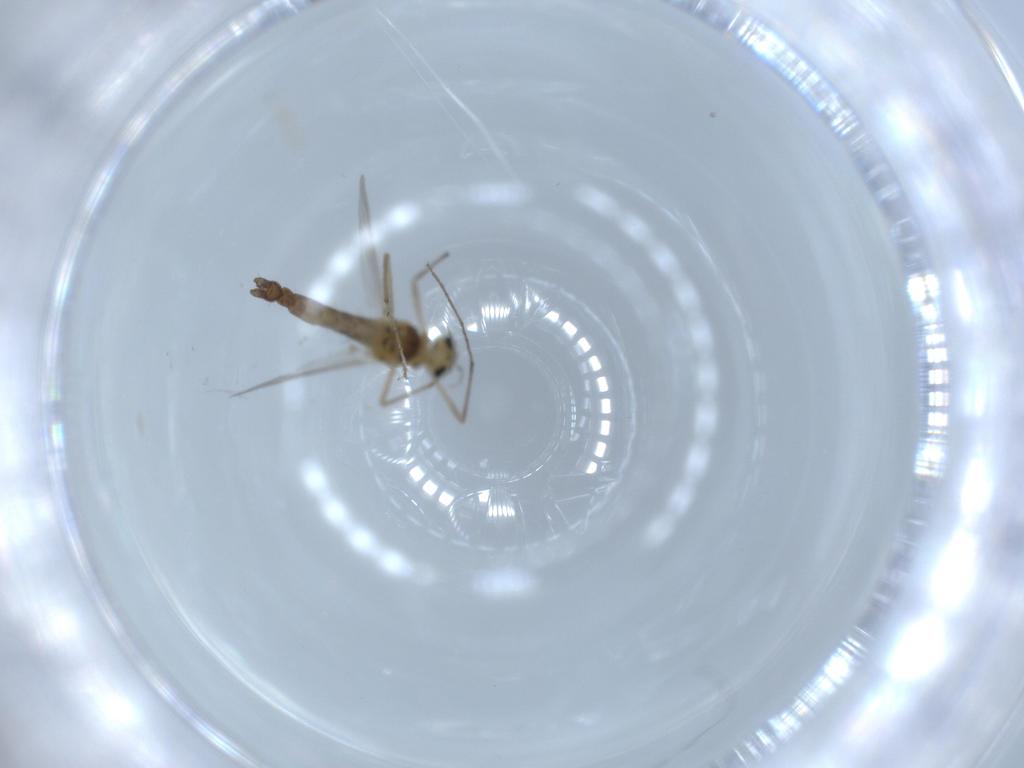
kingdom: Animalia
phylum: Arthropoda
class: Insecta
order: Diptera
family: Chironomidae
